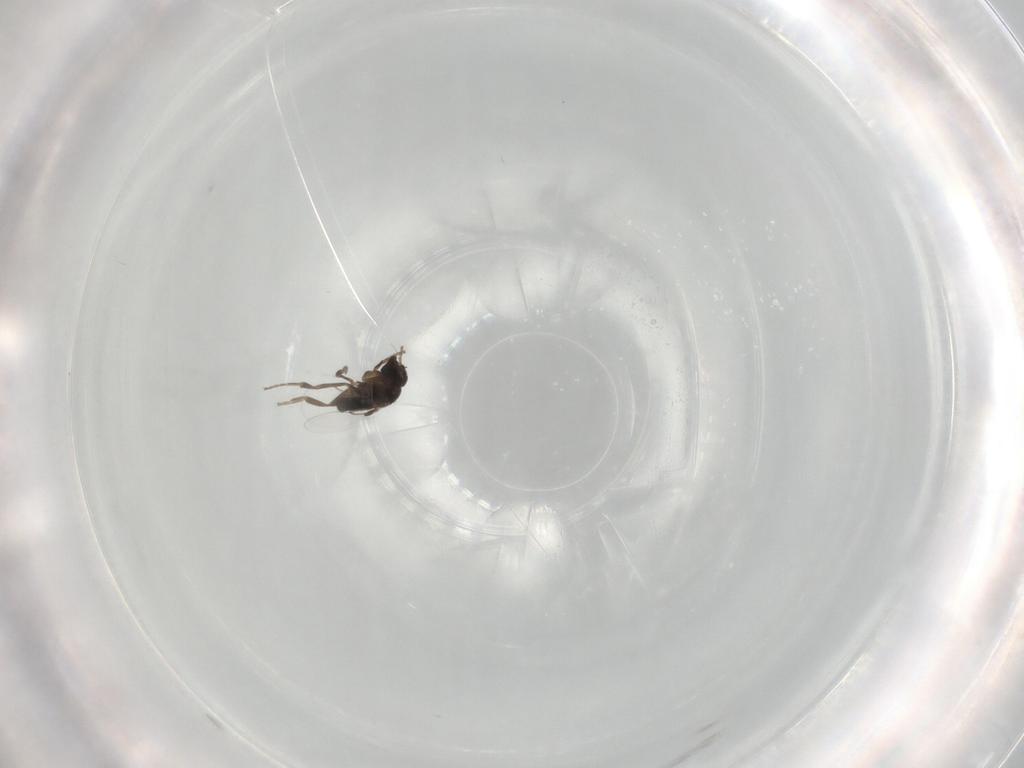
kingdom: Animalia
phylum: Arthropoda
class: Insecta
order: Diptera
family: Phoridae
